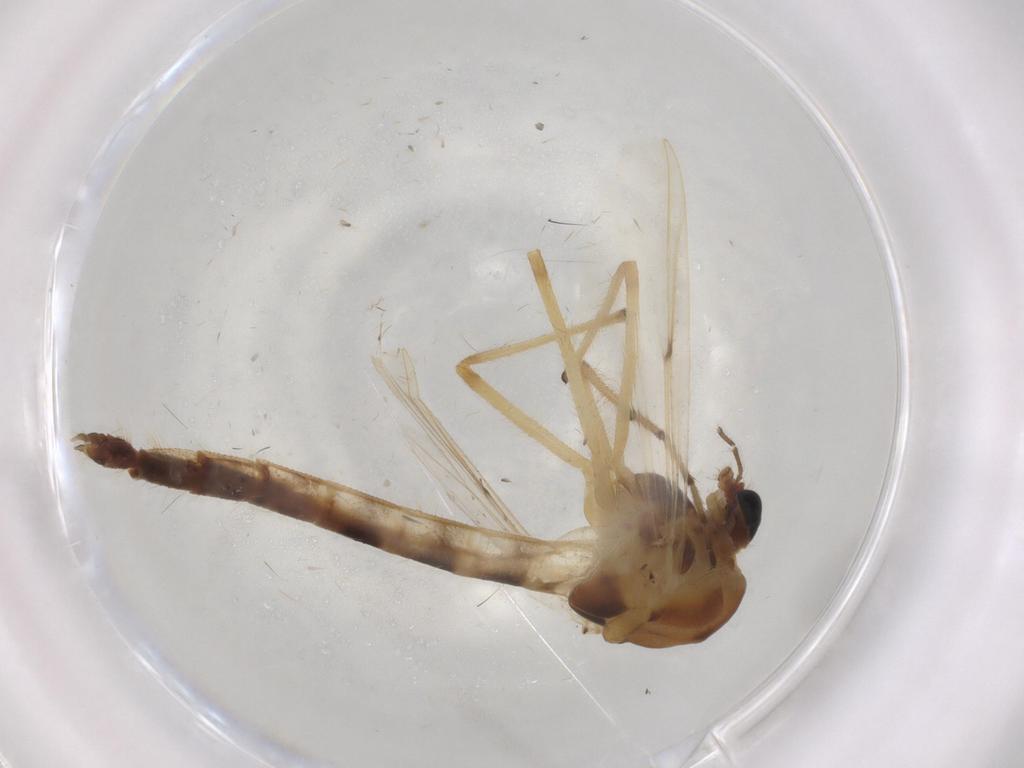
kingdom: Animalia
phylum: Arthropoda
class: Insecta
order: Diptera
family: Chironomidae
